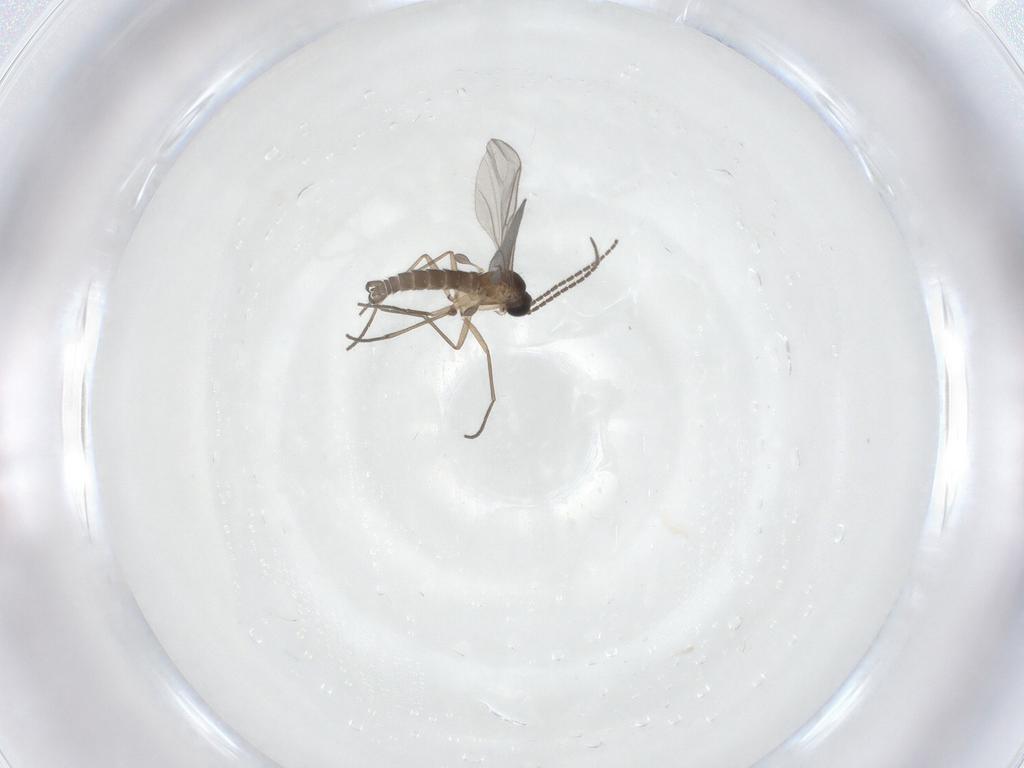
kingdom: Animalia
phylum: Arthropoda
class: Insecta
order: Diptera
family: Sciaridae
